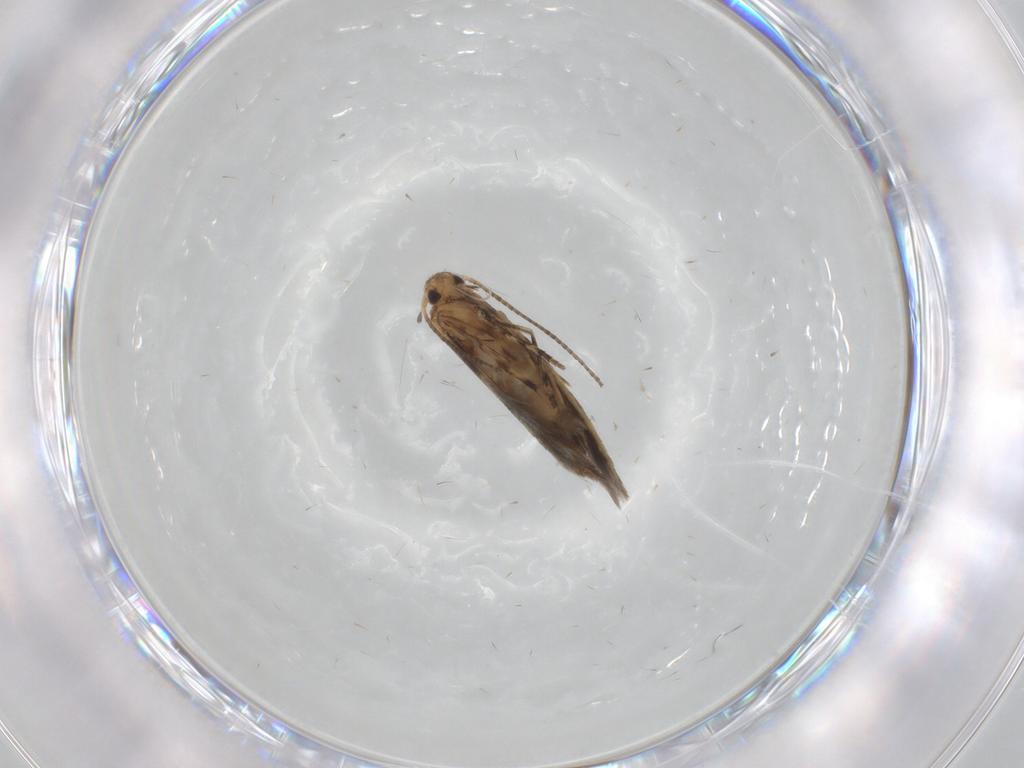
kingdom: Animalia
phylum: Arthropoda
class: Insecta
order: Lepidoptera
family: Gracillariidae
